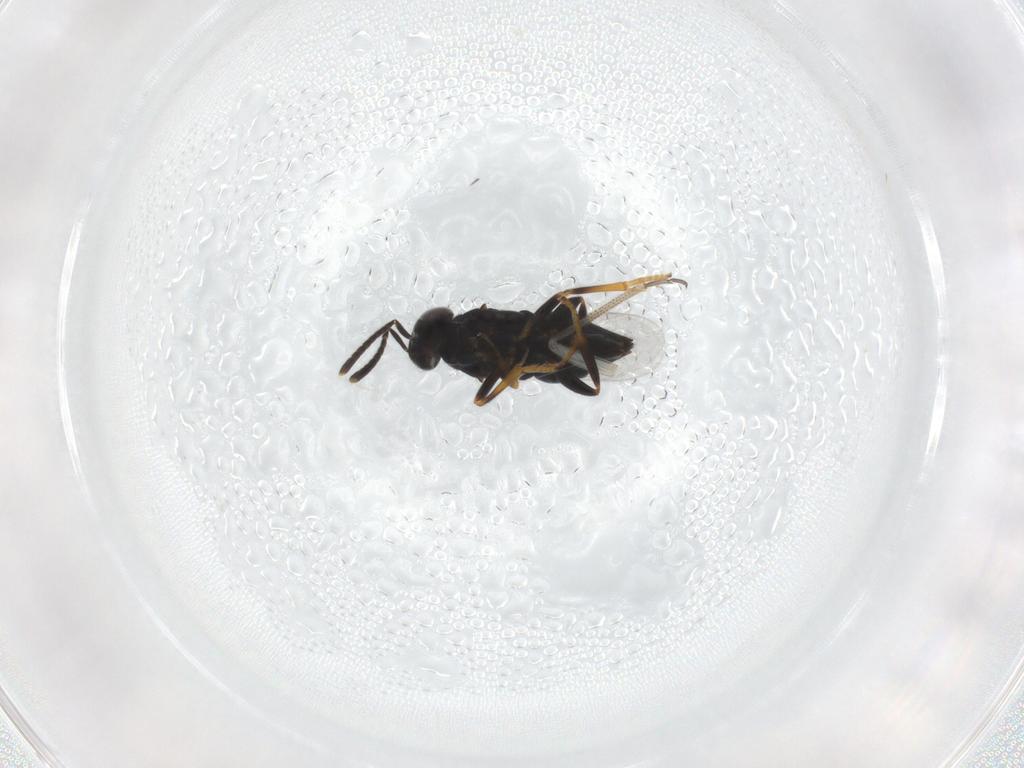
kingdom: Animalia
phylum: Arthropoda
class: Insecta
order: Hymenoptera
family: Mymaridae
